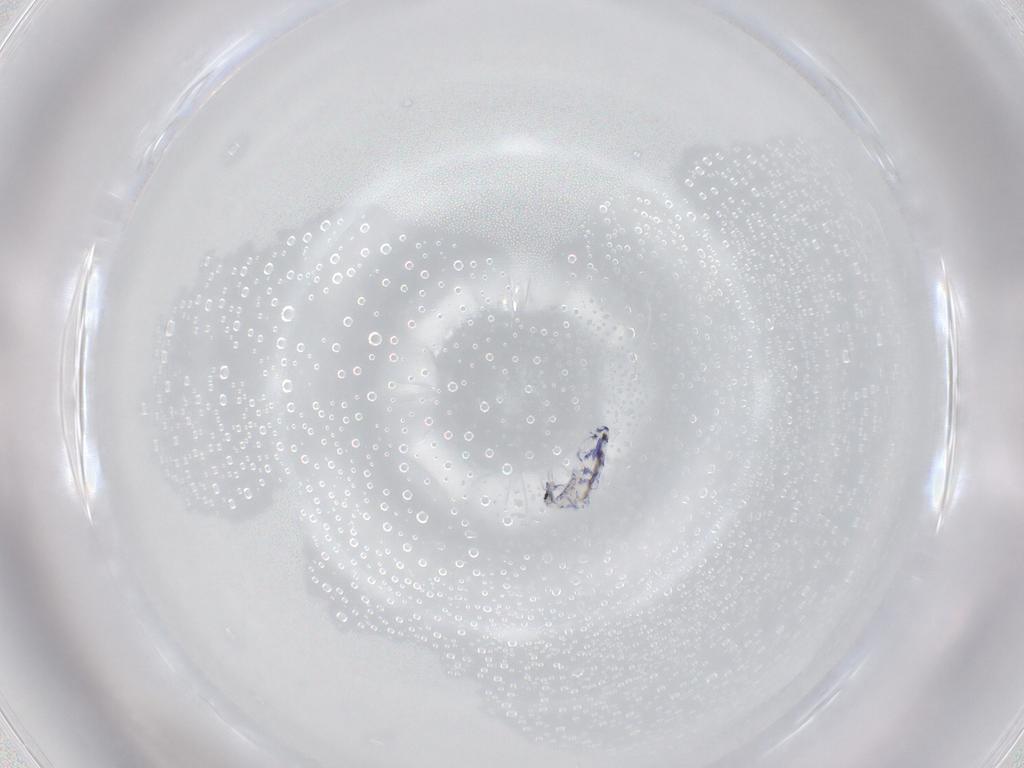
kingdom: Animalia
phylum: Arthropoda
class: Collembola
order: Entomobryomorpha
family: Entomobryidae
